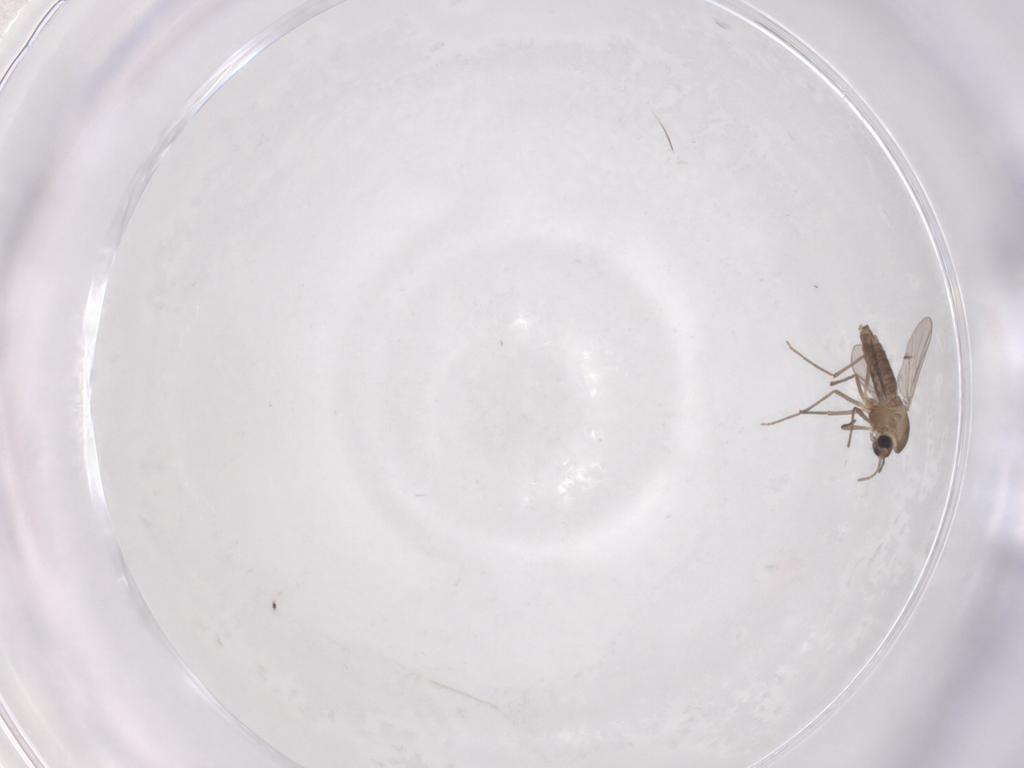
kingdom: Animalia
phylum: Arthropoda
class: Insecta
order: Diptera
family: Chironomidae
